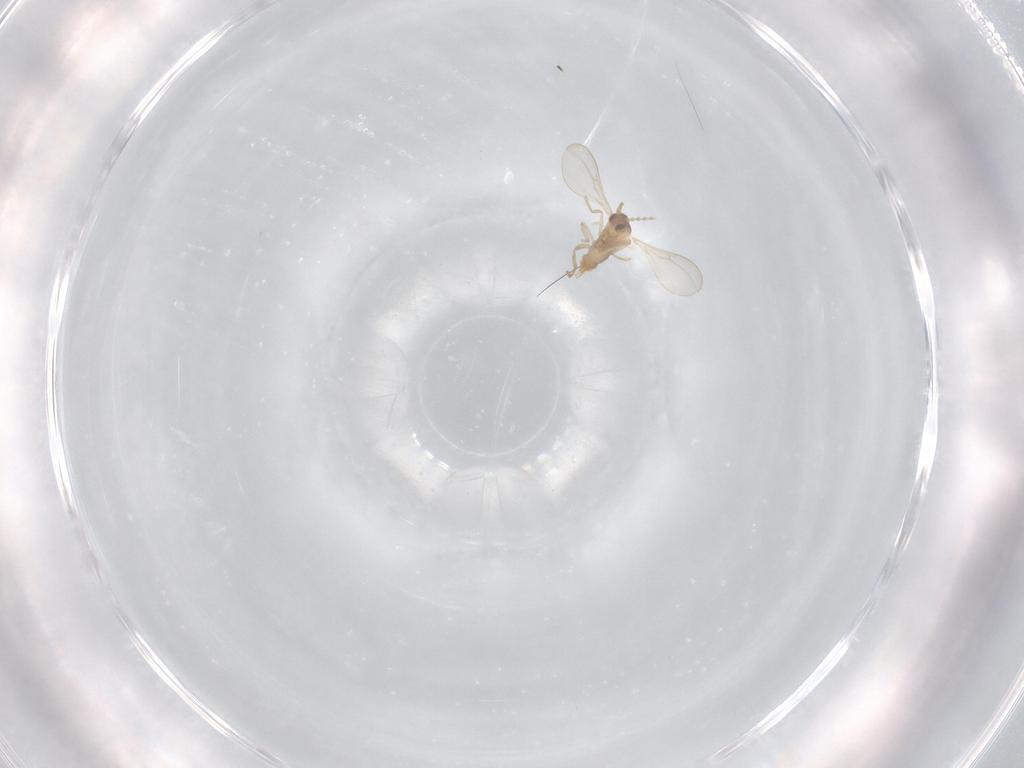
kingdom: Animalia
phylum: Arthropoda
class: Insecta
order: Diptera
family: Cecidomyiidae
